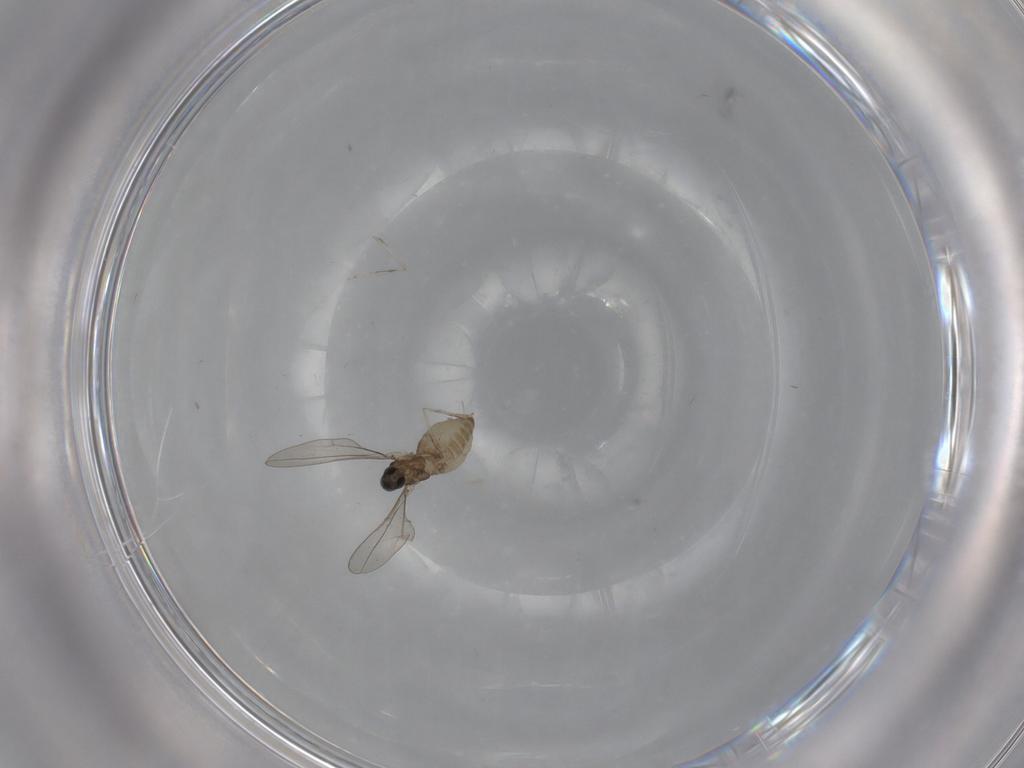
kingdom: Animalia
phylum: Arthropoda
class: Insecta
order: Diptera
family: Cecidomyiidae
